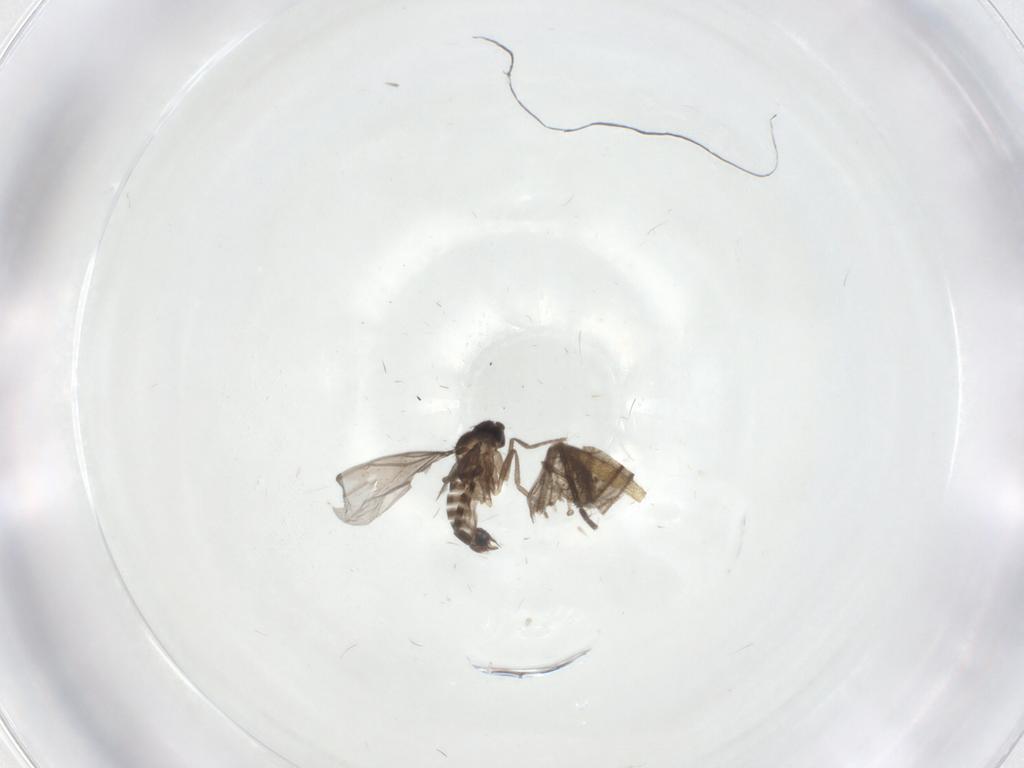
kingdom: Animalia
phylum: Arthropoda
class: Insecta
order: Diptera
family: Phoridae
